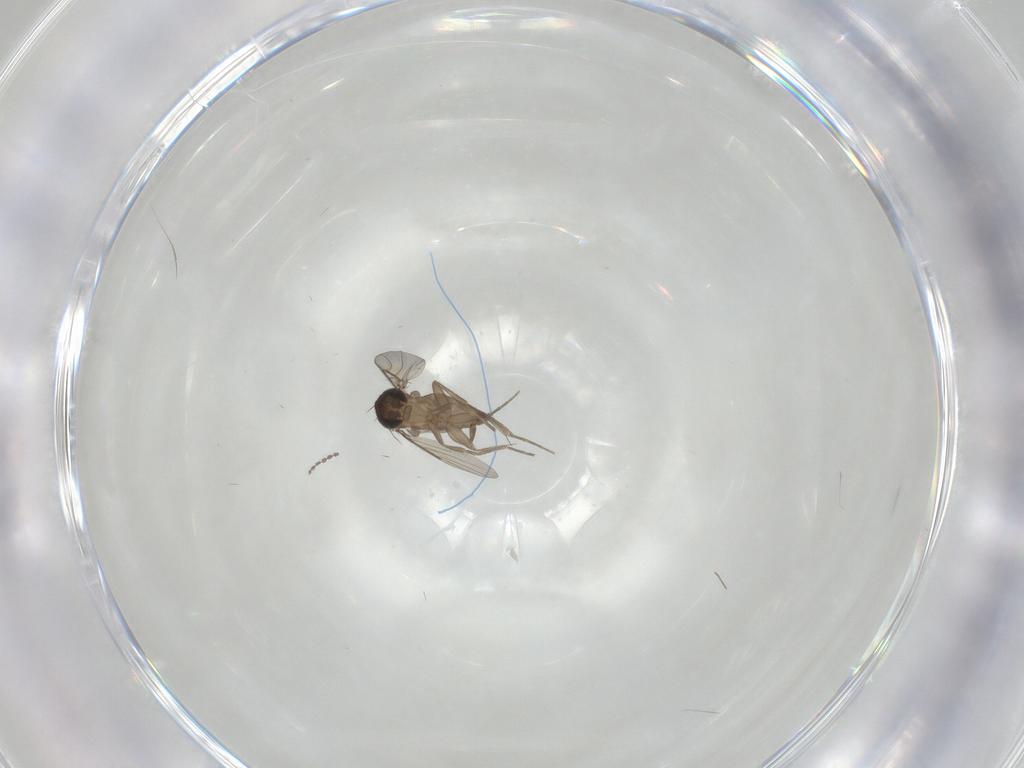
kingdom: Animalia
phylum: Arthropoda
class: Insecta
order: Diptera
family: Phoridae
